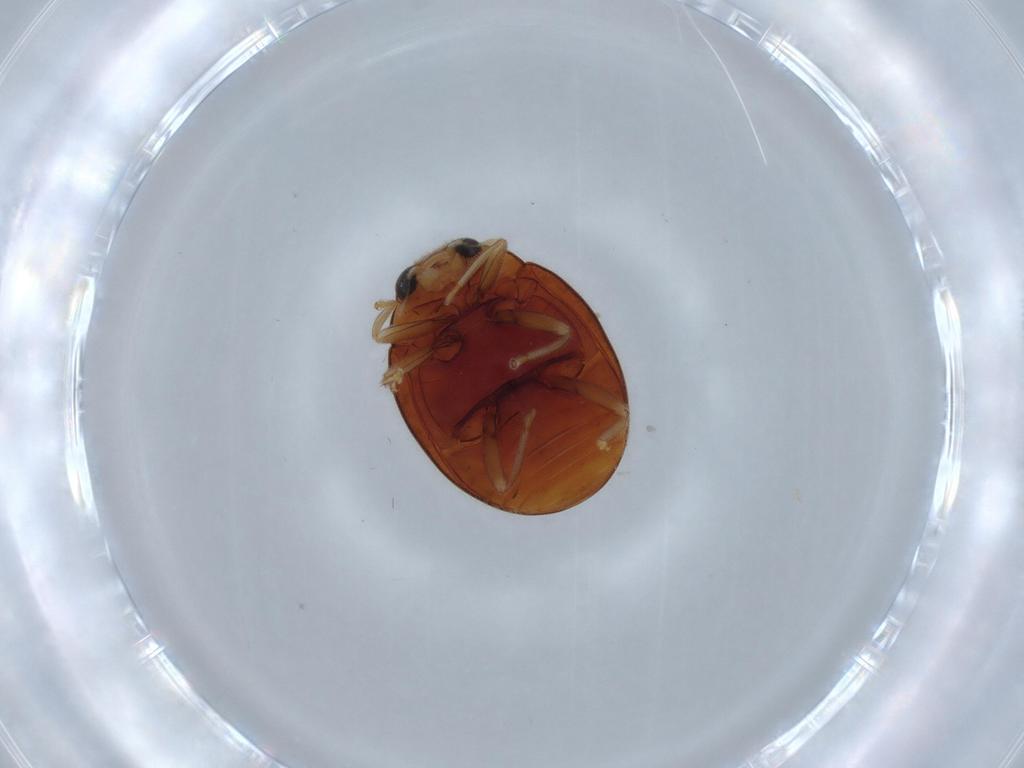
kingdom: Animalia
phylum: Arthropoda
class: Insecta
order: Coleoptera
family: Coccinellidae
